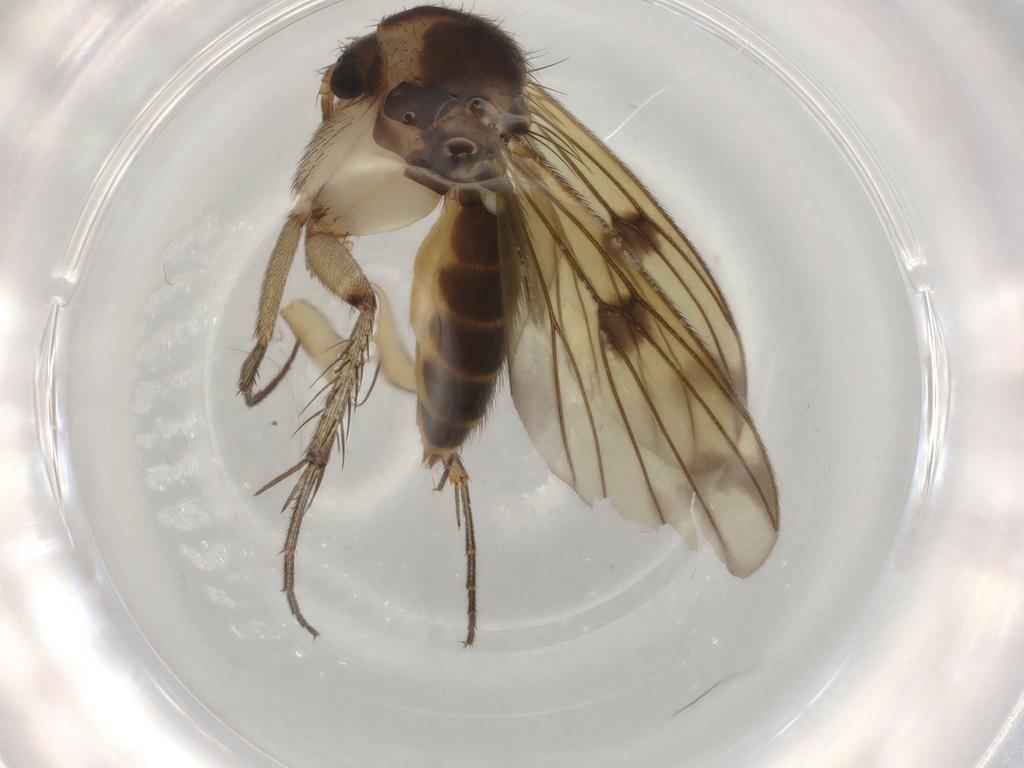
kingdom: Animalia
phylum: Arthropoda
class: Insecta
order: Diptera
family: Mycetophilidae
